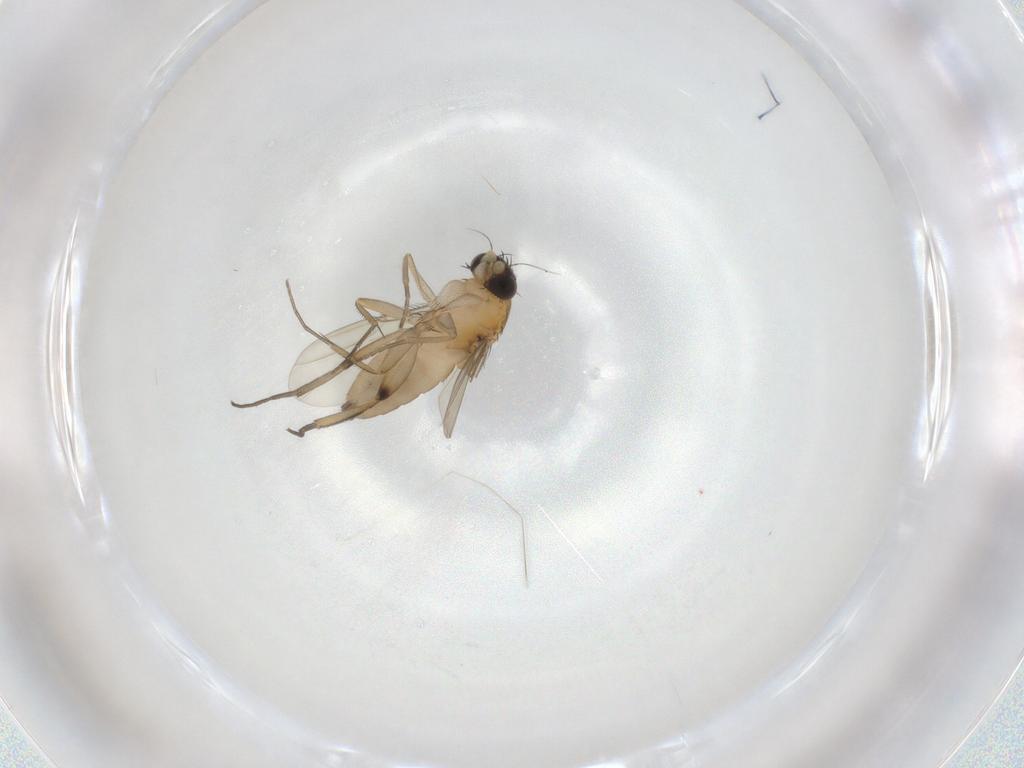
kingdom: Animalia
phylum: Arthropoda
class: Insecta
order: Diptera
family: Phoridae
